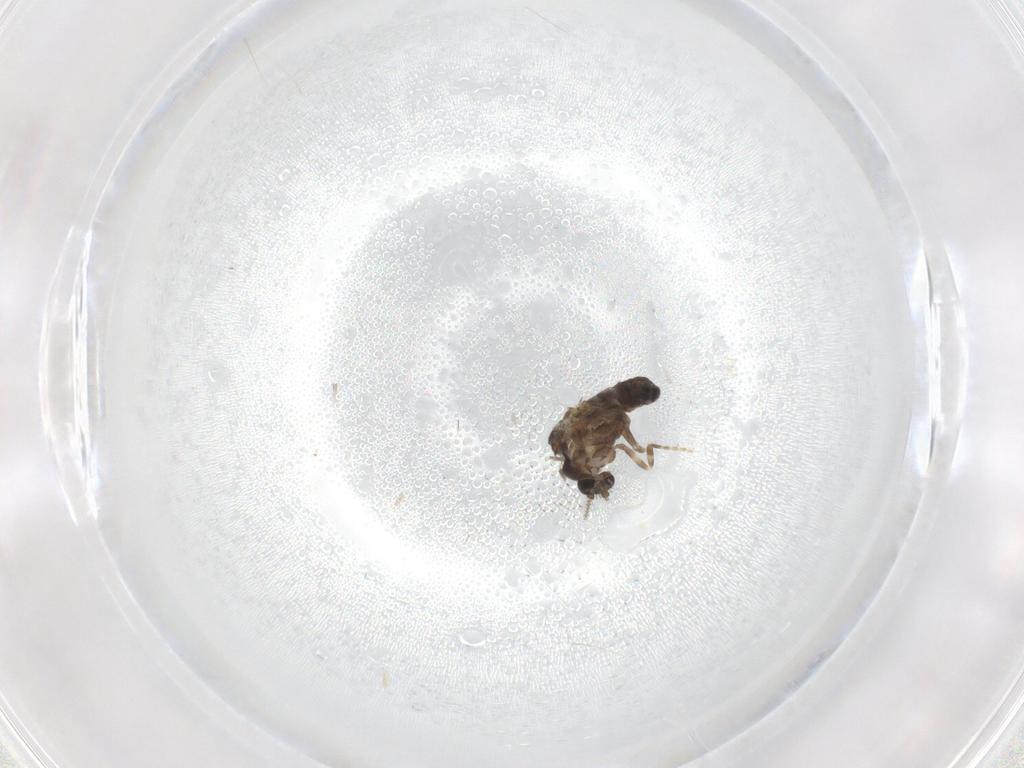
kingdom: Animalia
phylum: Arthropoda
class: Insecta
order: Diptera
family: Ceratopogonidae
